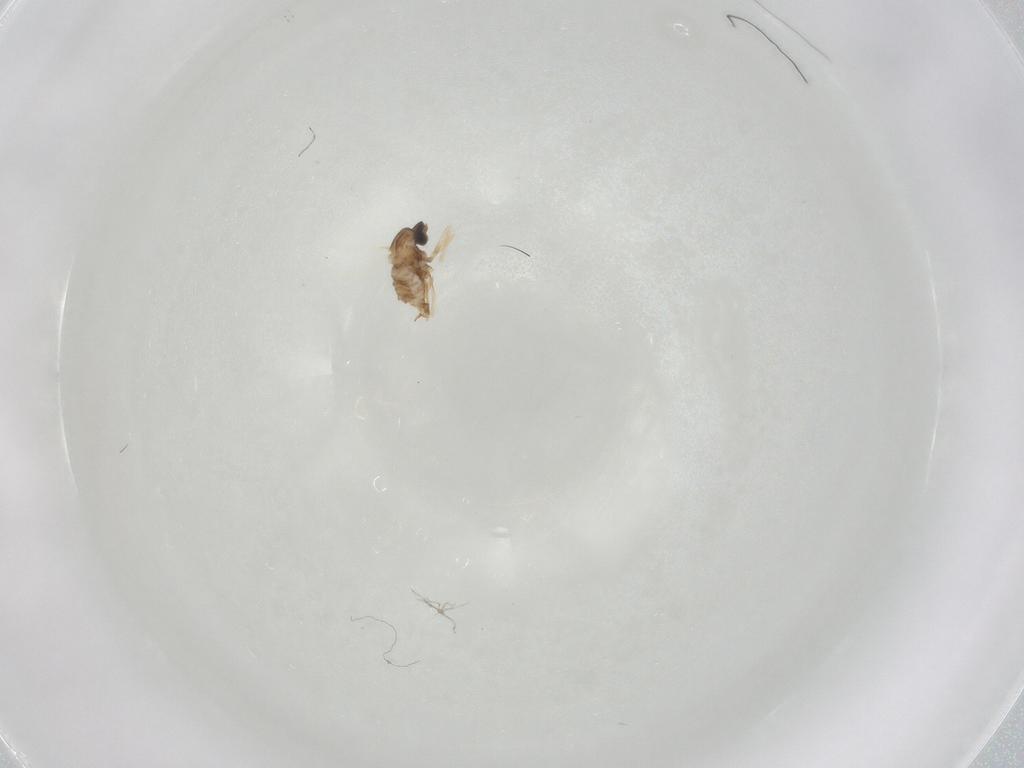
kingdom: Animalia
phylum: Arthropoda
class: Insecta
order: Diptera
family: Cecidomyiidae
